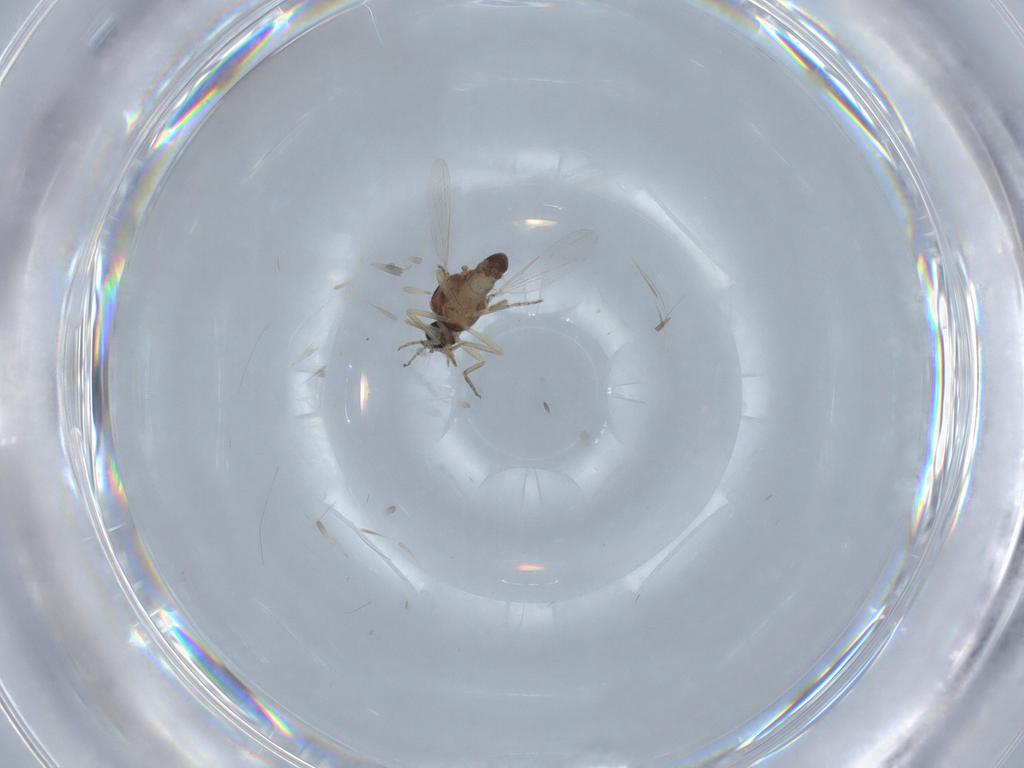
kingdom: Animalia
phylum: Arthropoda
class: Insecta
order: Diptera
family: Ceratopogonidae
